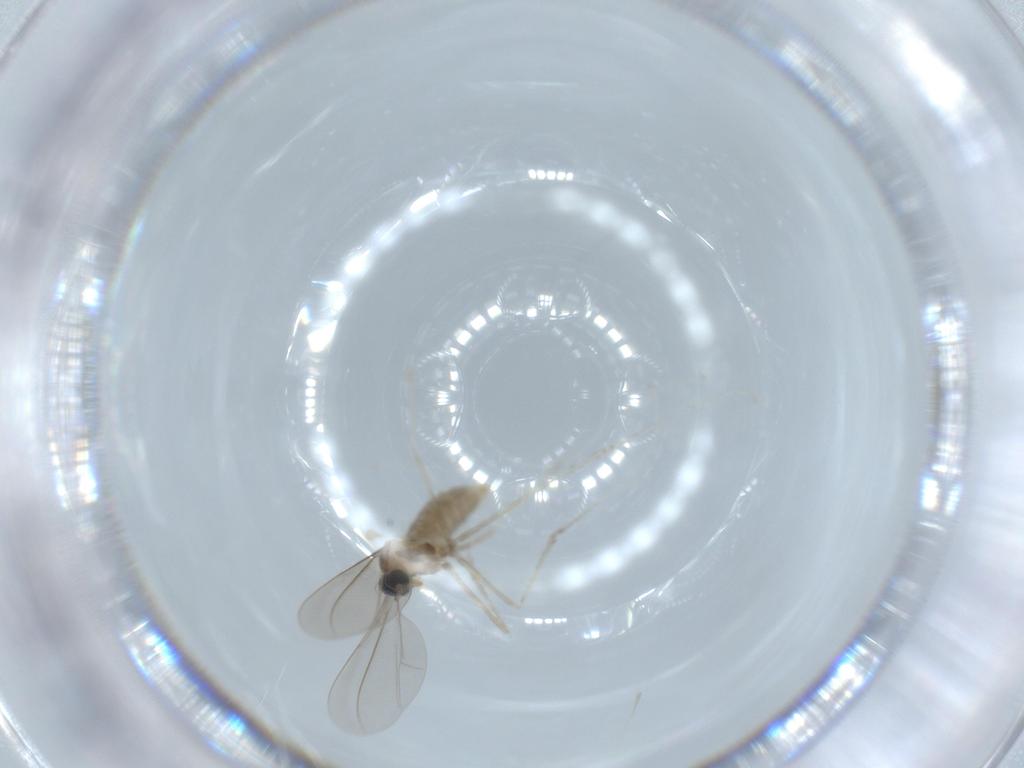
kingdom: Animalia
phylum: Arthropoda
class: Insecta
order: Diptera
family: Cecidomyiidae
